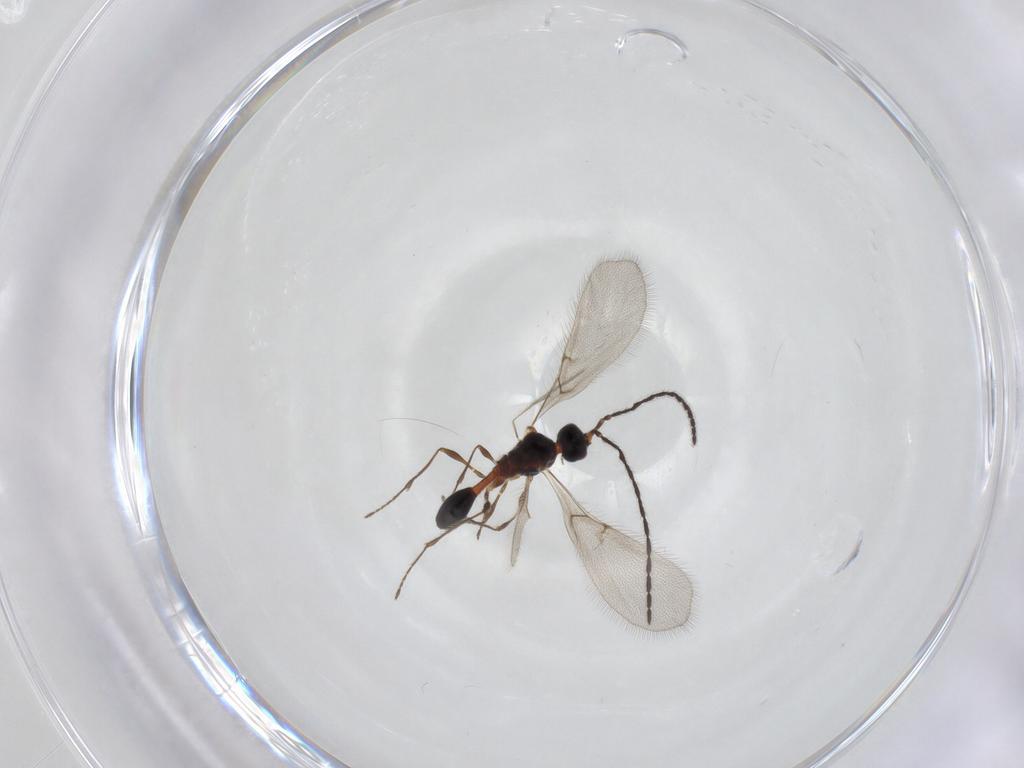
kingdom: Animalia
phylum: Arthropoda
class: Insecta
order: Hymenoptera
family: Diapriidae
